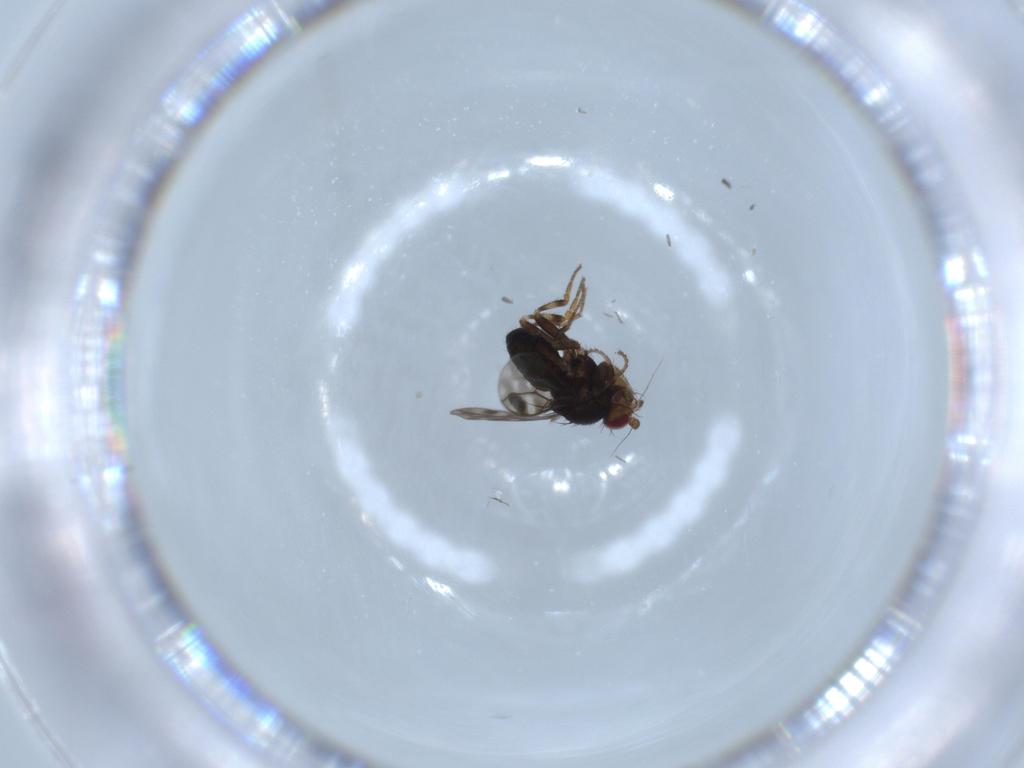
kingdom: Animalia
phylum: Arthropoda
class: Insecta
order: Diptera
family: Sphaeroceridae
